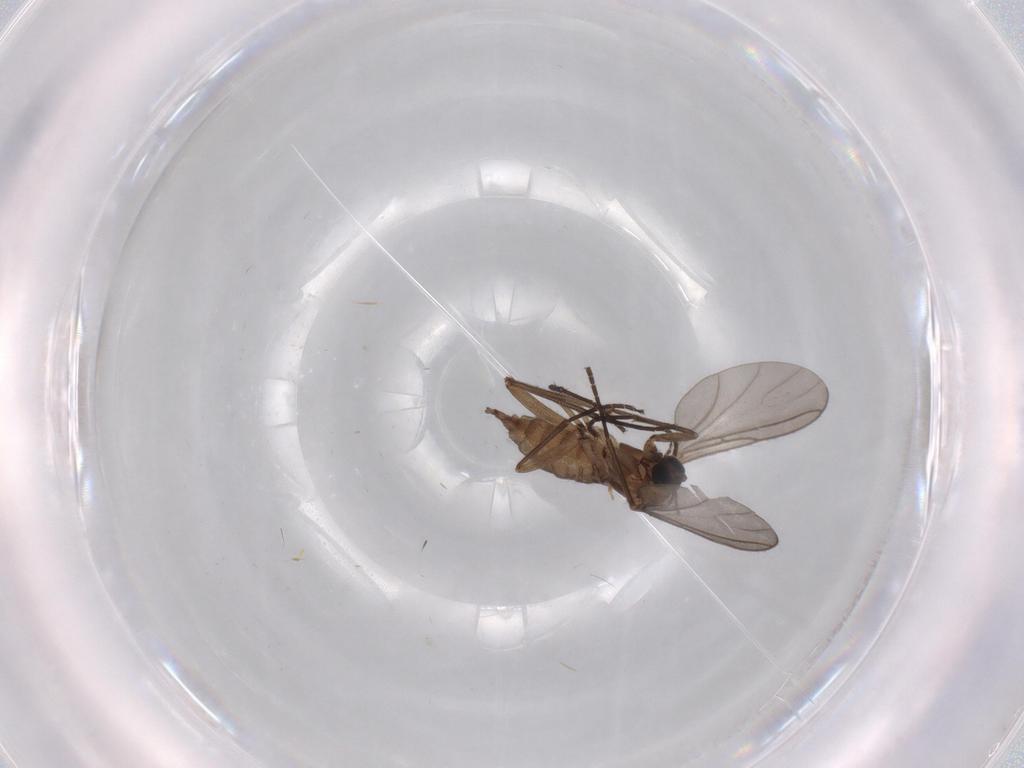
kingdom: Animalia
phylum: Arthropoda
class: Insecta
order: Diptera
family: Sciaridae
